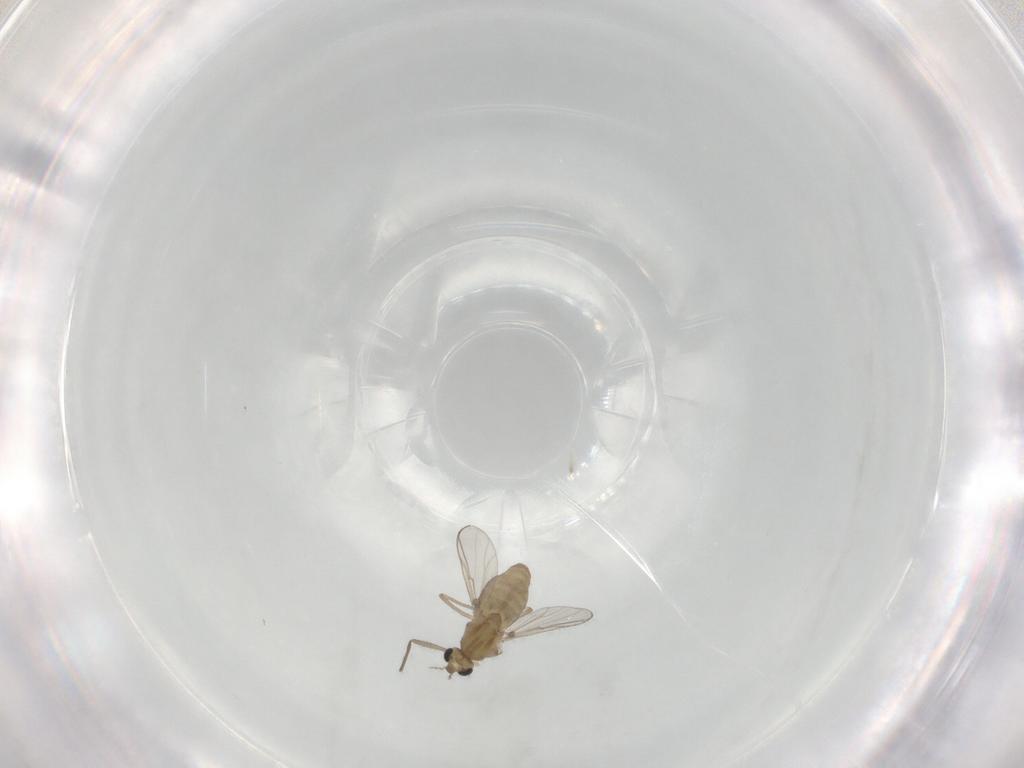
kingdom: Animalia
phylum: Arthropoda
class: Insecta
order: Diptera
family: Chironomidae
